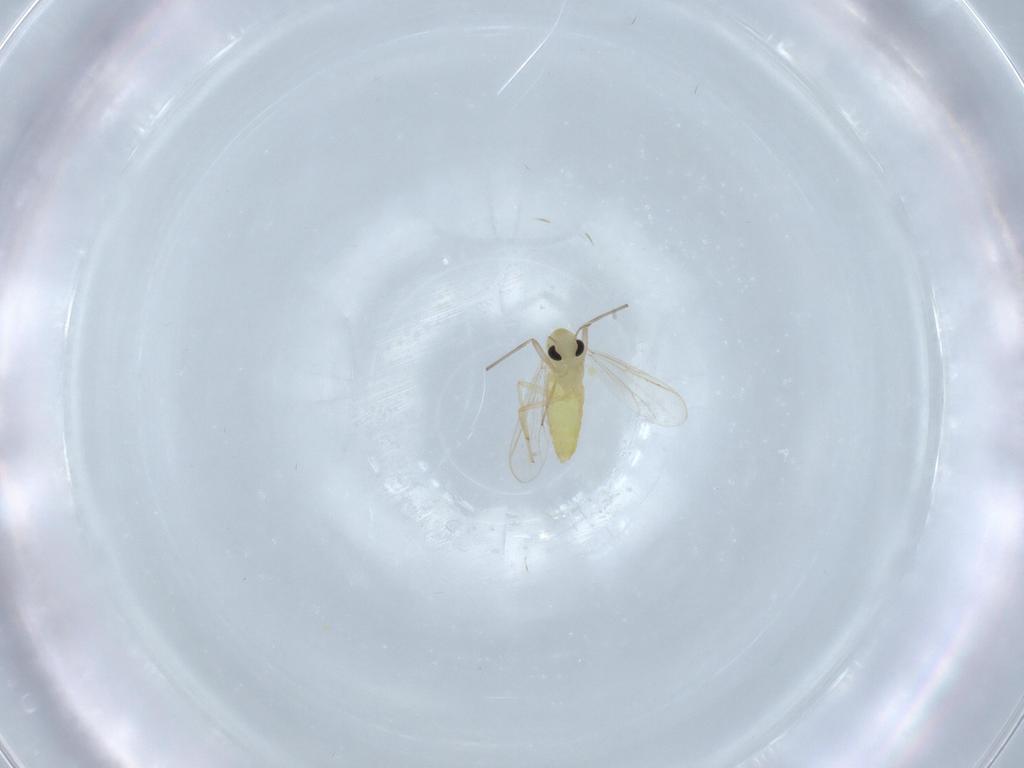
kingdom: Animalia
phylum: Arthropoda
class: Insecta
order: Diptera
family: Chironomidae
